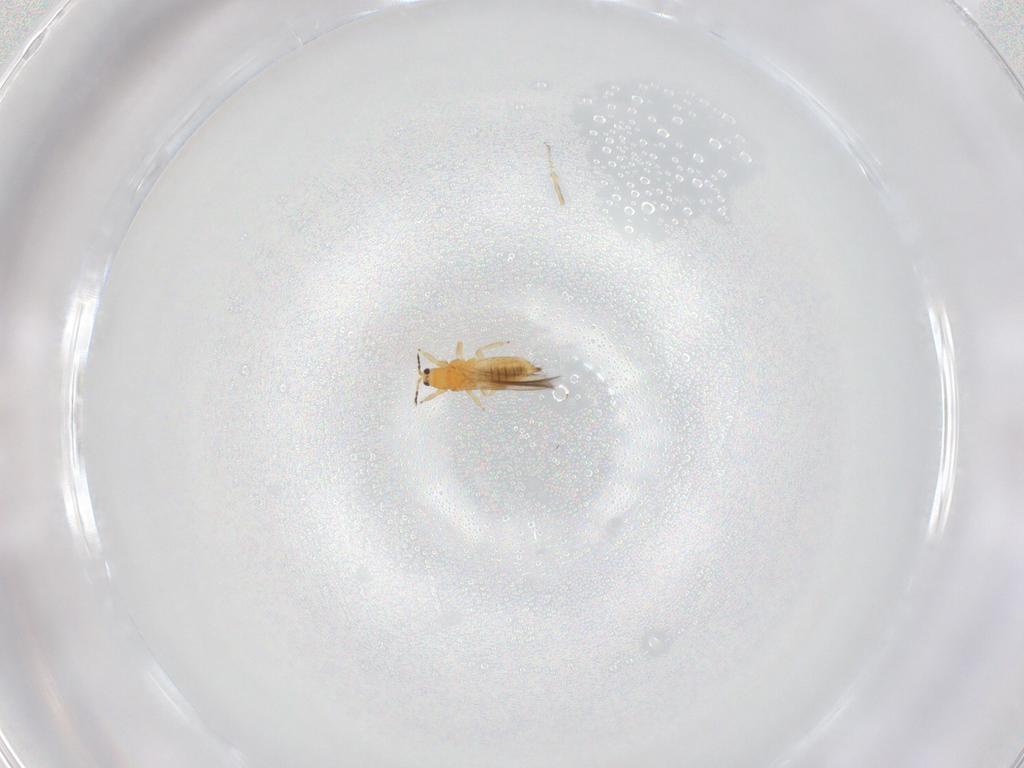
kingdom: Animalia
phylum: Arthropoda
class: Insecta
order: Thysanoptera
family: Thripidae
